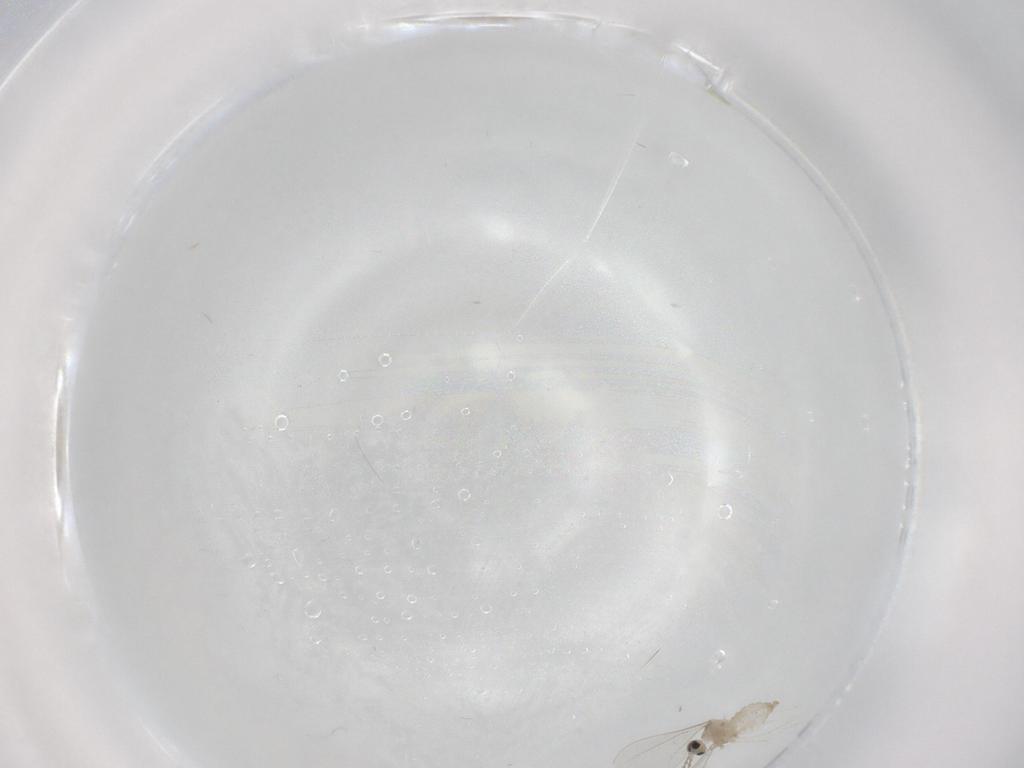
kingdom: Animalia
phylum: Arthropoda
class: Insecta
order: Diptera
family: Cecidomyiidae
